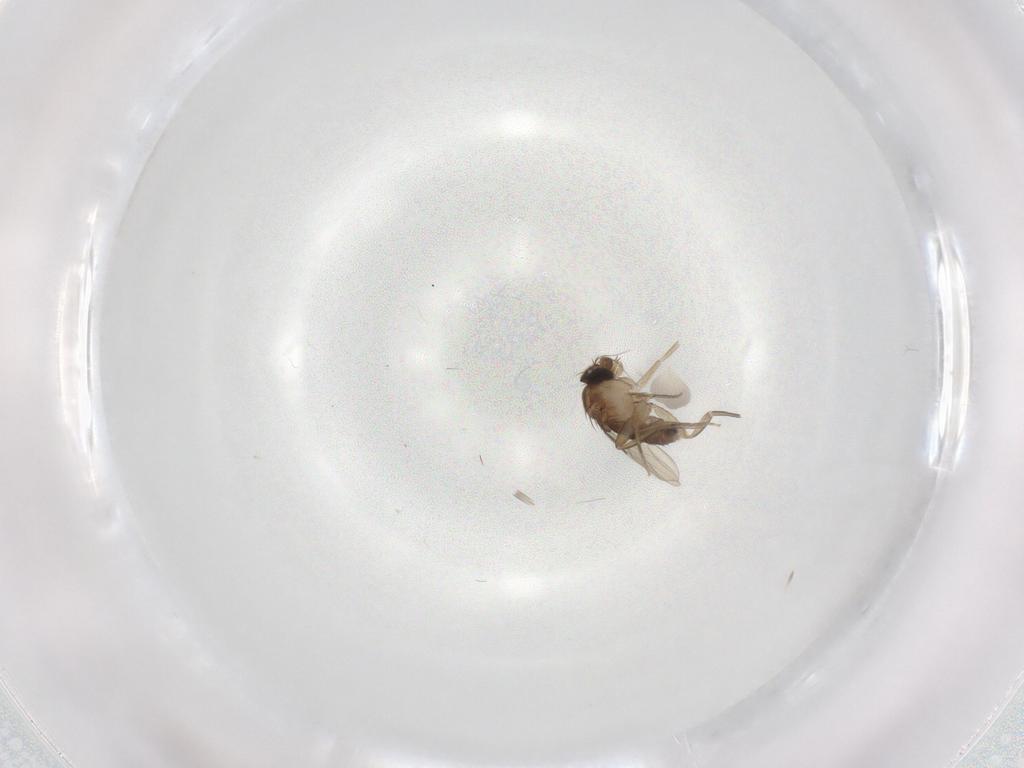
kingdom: Animalia
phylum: Arthropoda
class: Insecta
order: Diptera
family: Phoridae
